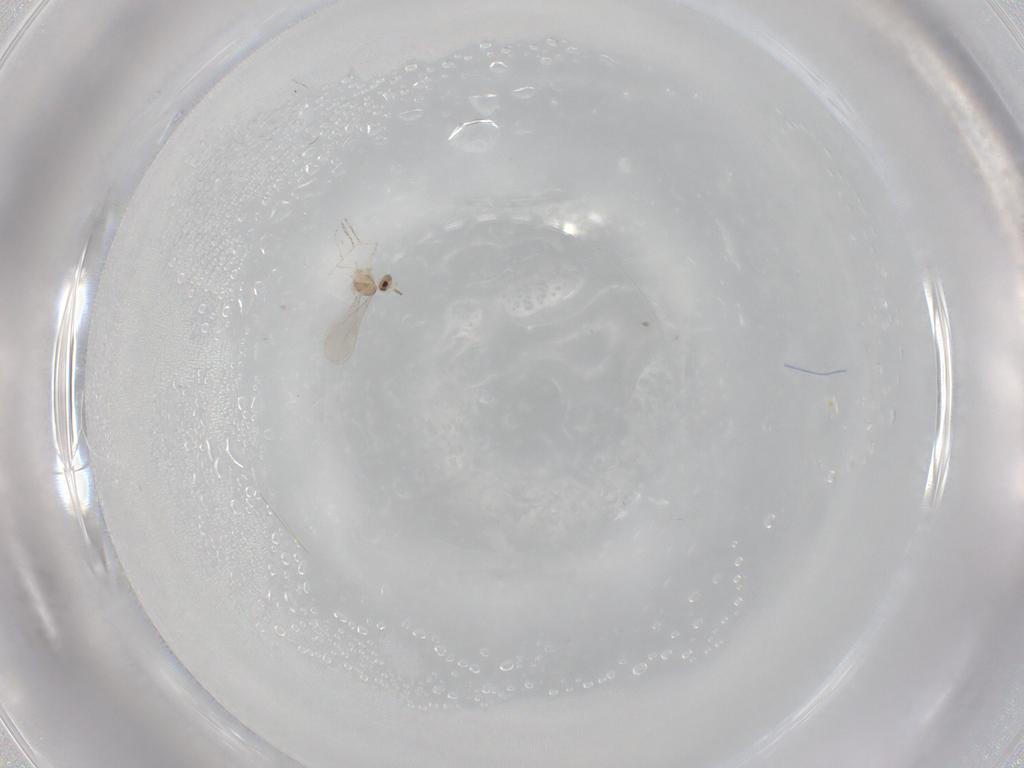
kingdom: Animalia
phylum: Arthropoda
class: Insecta
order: Diptera
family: Cecidomyiidae
